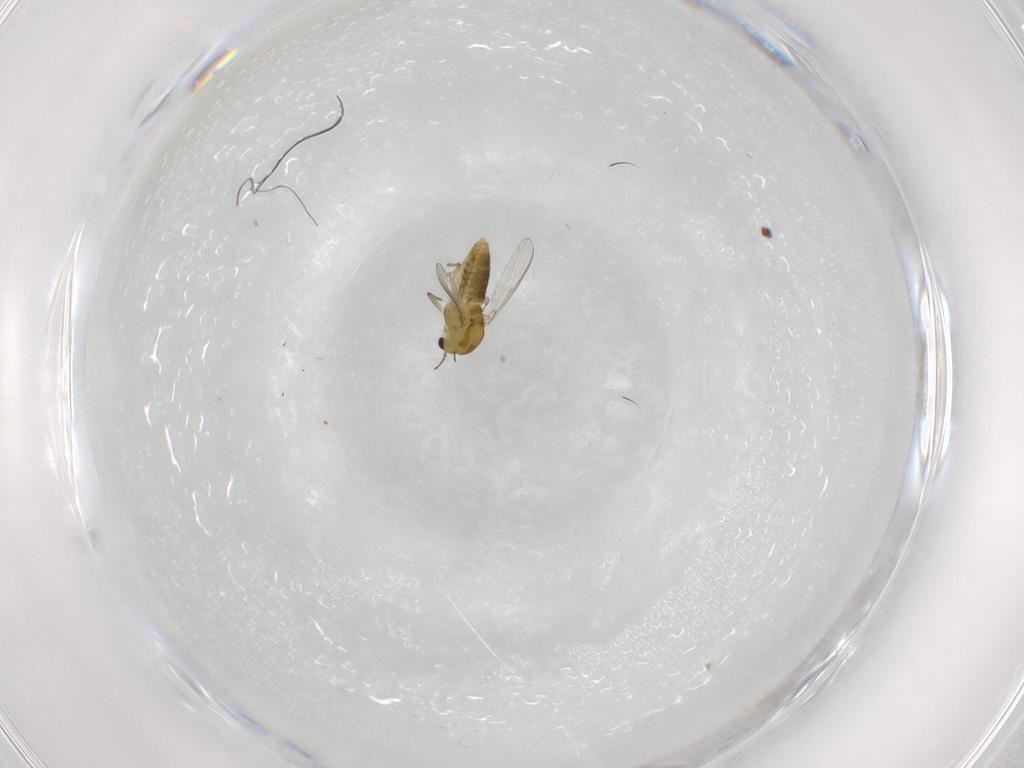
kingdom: Animalia
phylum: Arthropoda
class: Insecta
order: Diptera
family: Chironomidae
